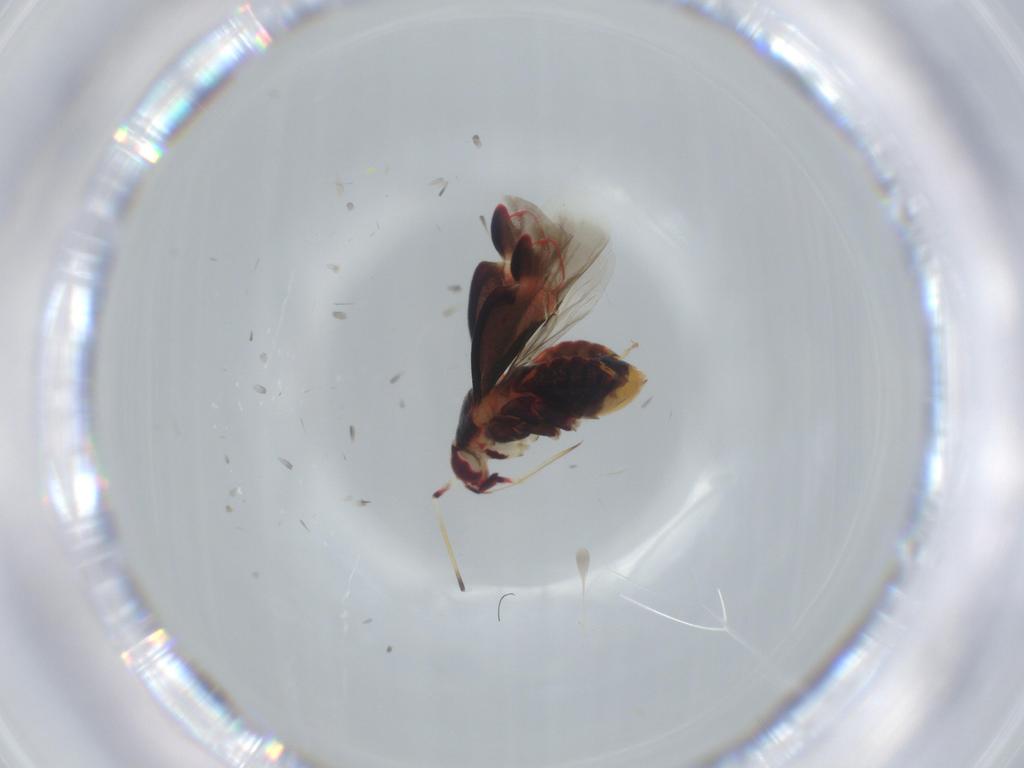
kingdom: Animalia
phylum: Arthropoda
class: Insecta
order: Hemiptera
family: Miridae
